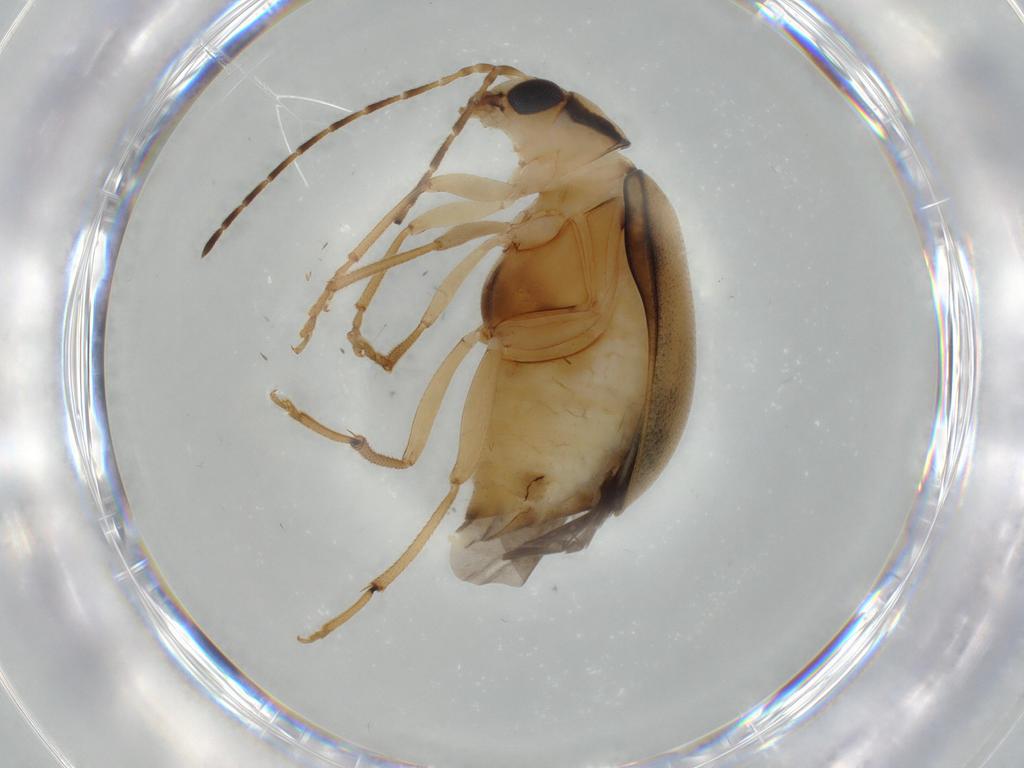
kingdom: Animalia
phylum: Arthropoda
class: Insecta
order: Coleoptera
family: Chrysomelidae
